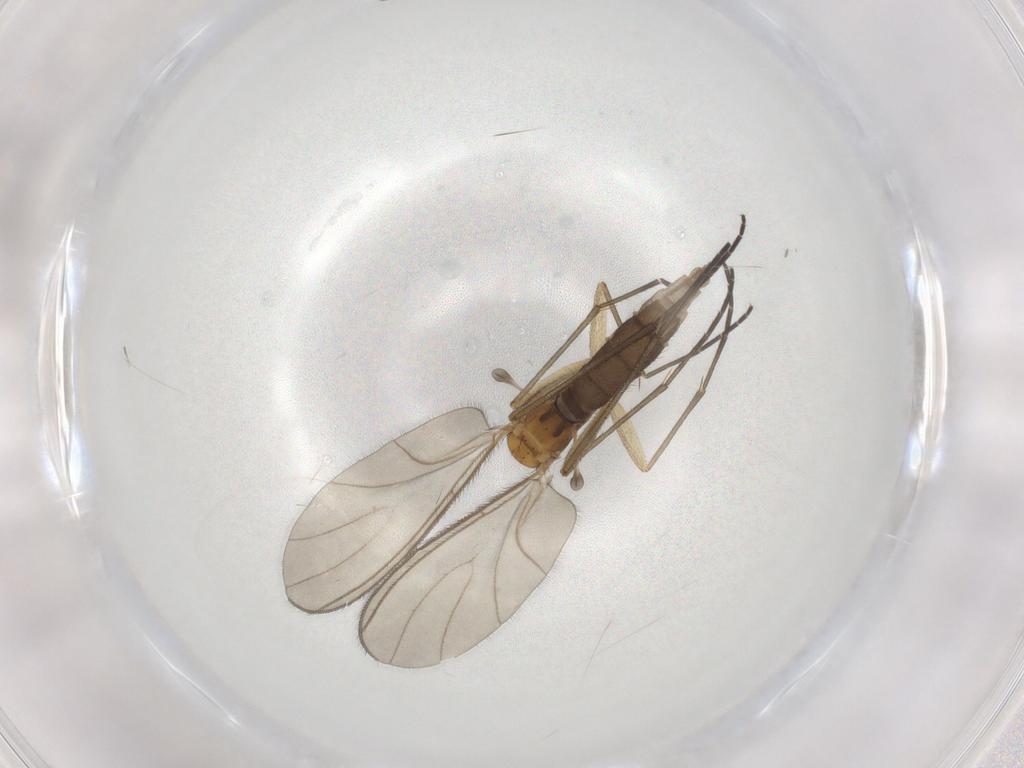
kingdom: Animalia
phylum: Arthropoda
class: Insecta
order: Diptera
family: Sciaridae
